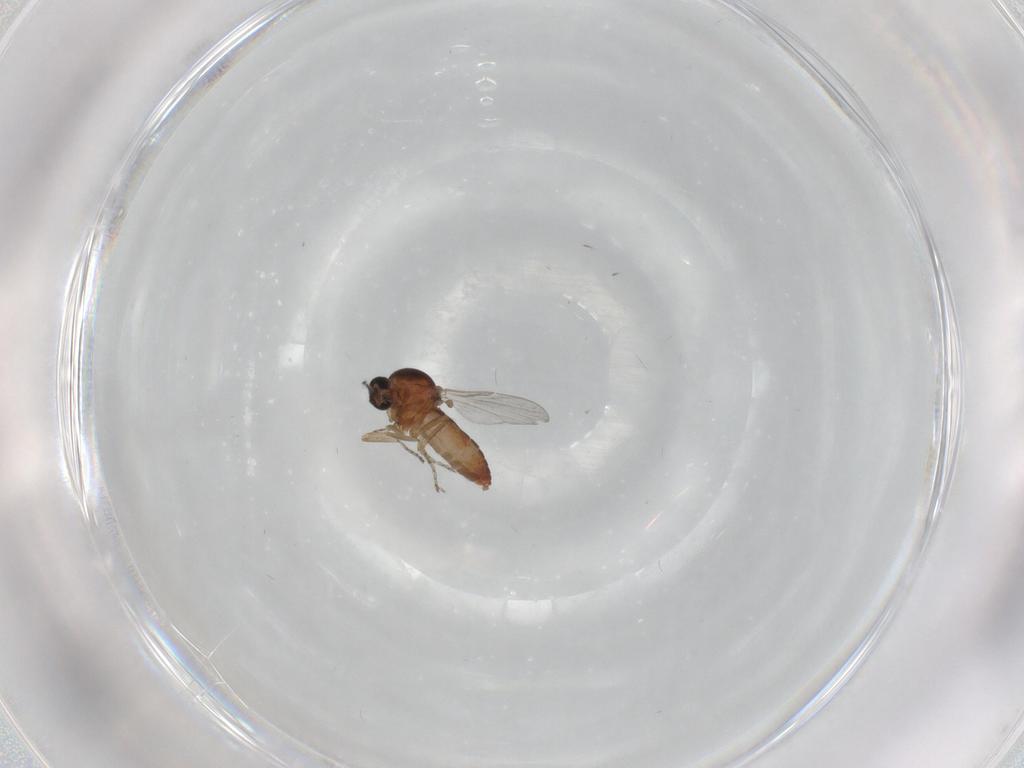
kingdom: Animalia
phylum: Arthropoda
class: Insecta
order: Diptera
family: Ceratopogonidae
